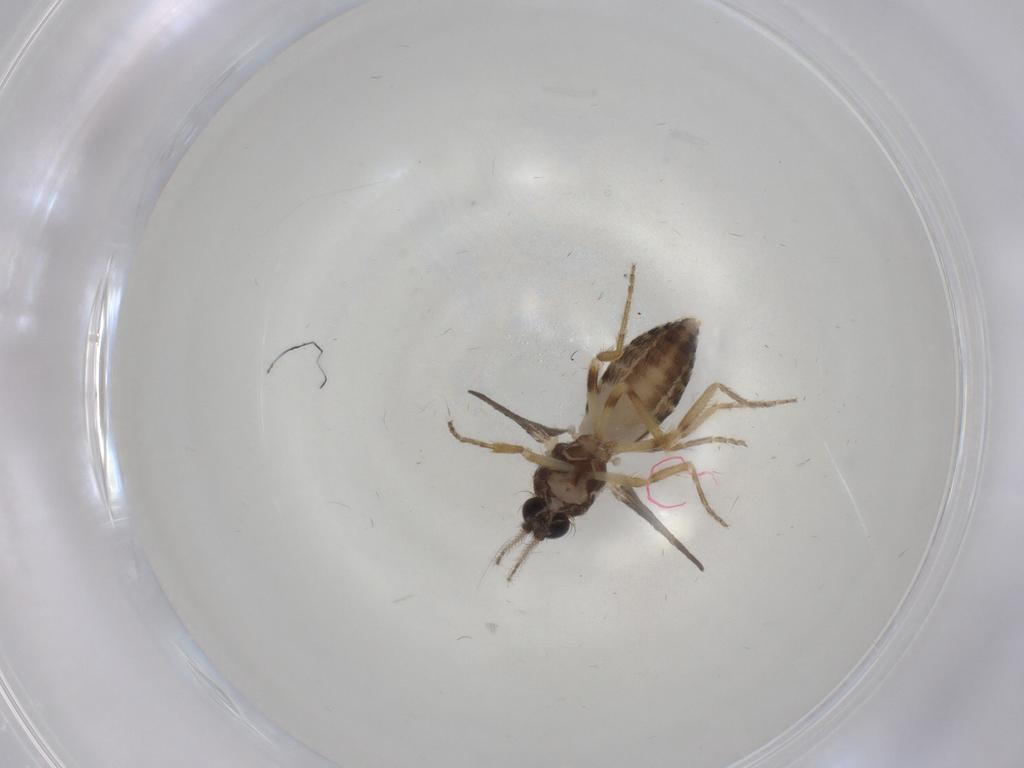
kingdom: Animalia
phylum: Arthropoda
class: Insecta
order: Diptera
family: Ceratopogonidae
